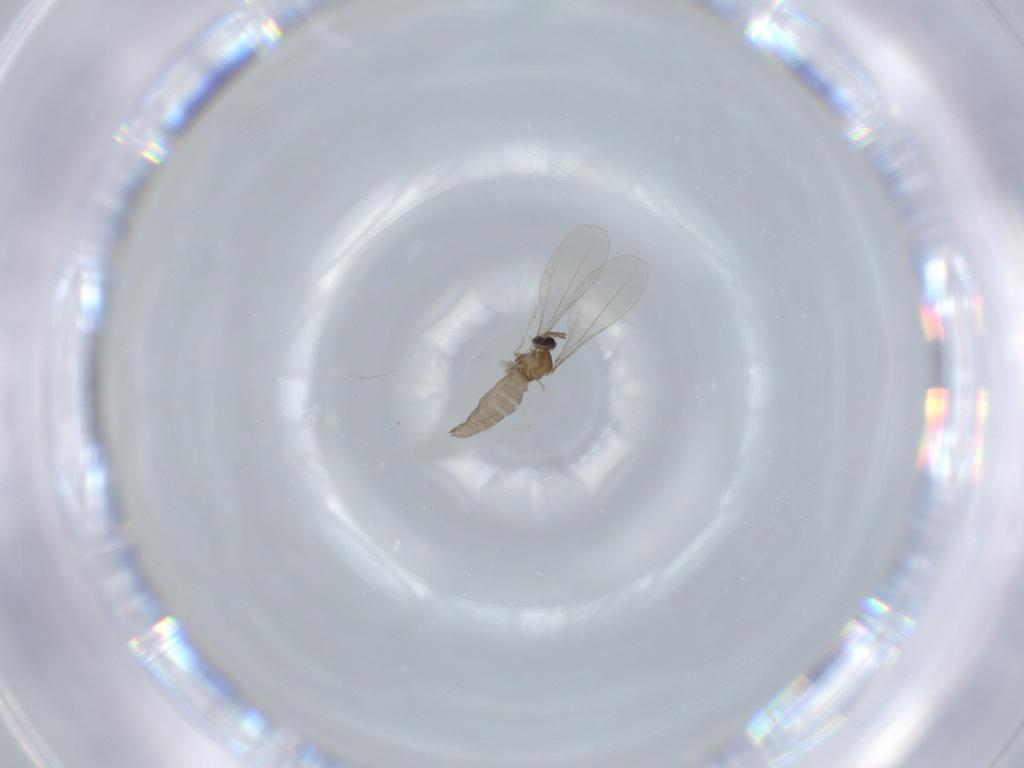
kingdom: Animalia
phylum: Arthropoda
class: Insecta
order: Diptera
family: Cecidomyiidae
